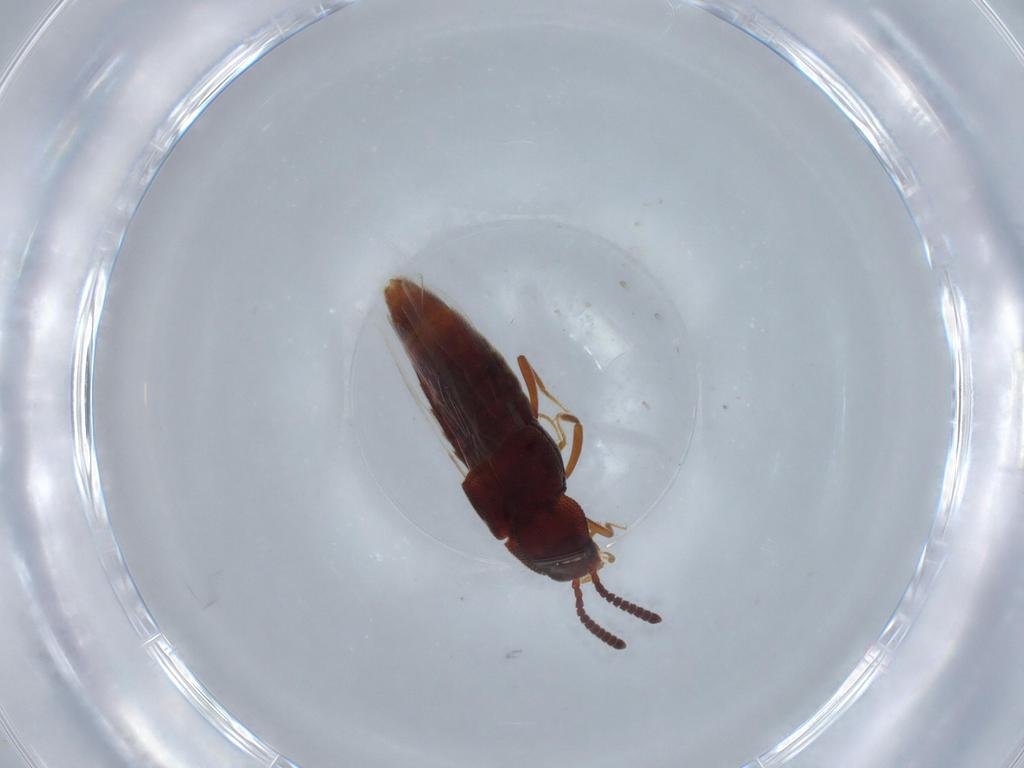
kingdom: Animalia
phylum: Arthropoda
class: Insecta
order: Coleoptera
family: Staphylinidae
